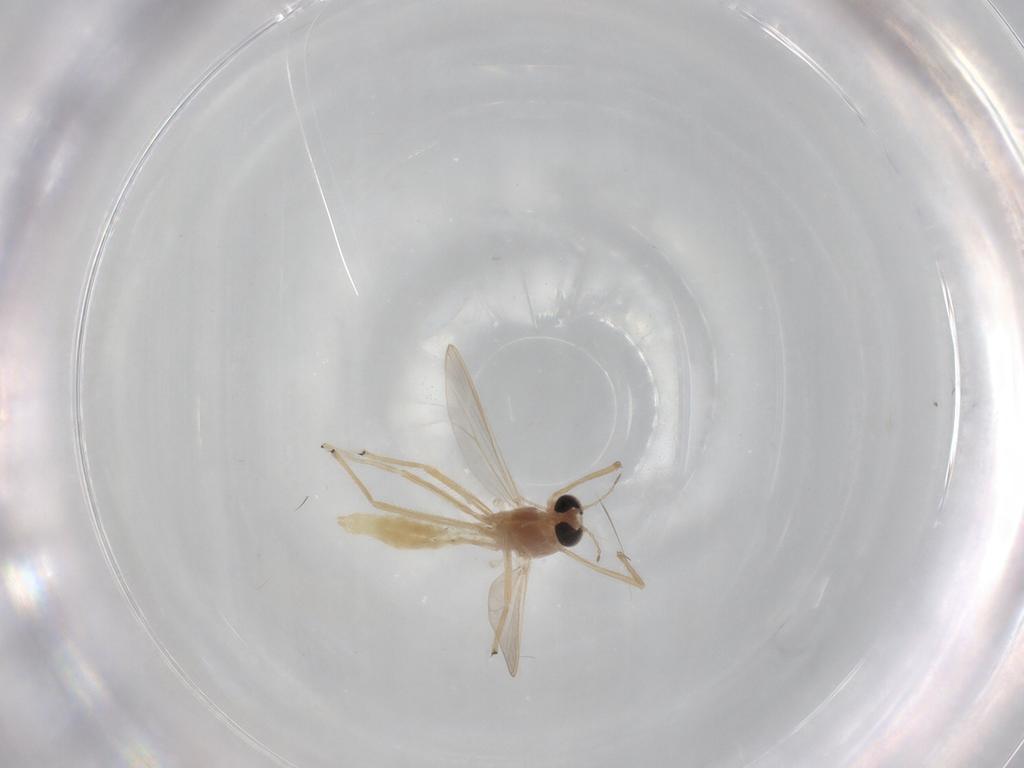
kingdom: Animalia
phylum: Arthropoda
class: Insecta
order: Diptera
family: Chironomidae
